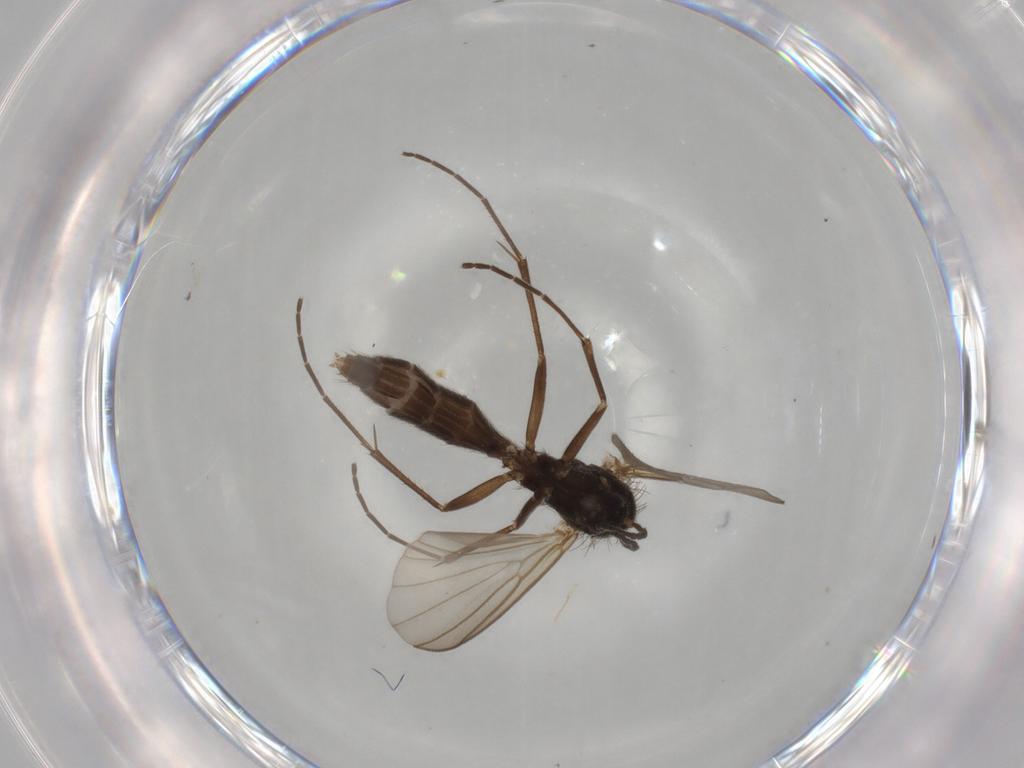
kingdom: Animalia
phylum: Arthropoda
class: Insecta
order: Diptera
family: Mycetophilidae
